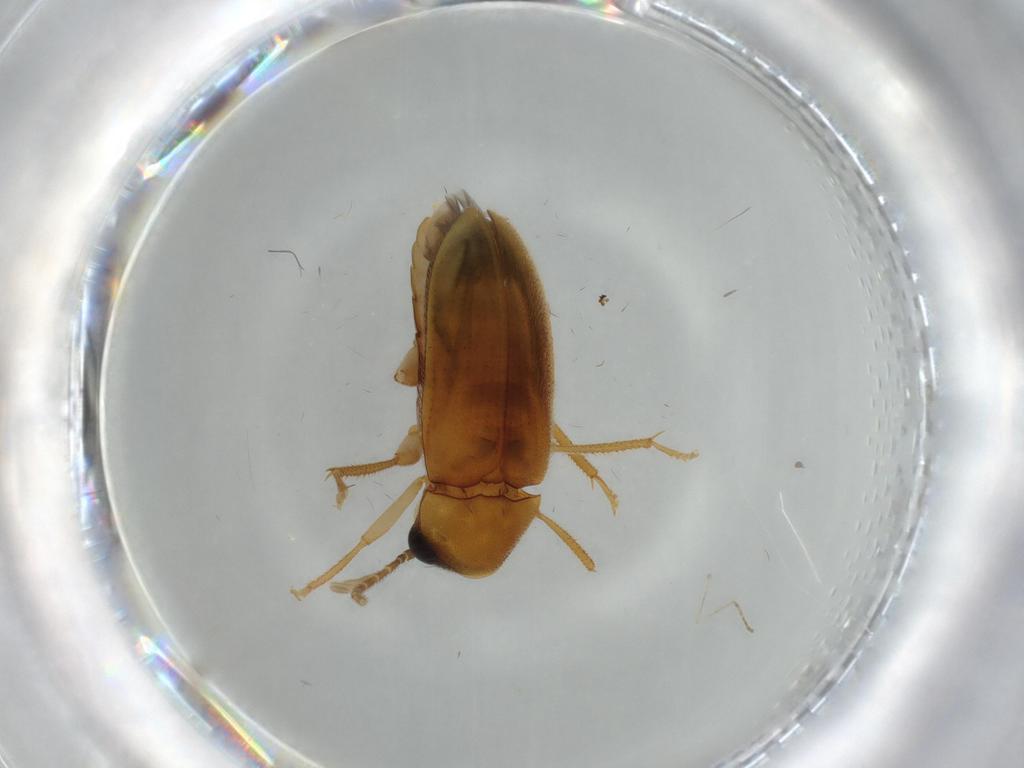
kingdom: Animalia
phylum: Arthropoda
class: Insecta
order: Coleoptera
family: Ptilodactylidae
